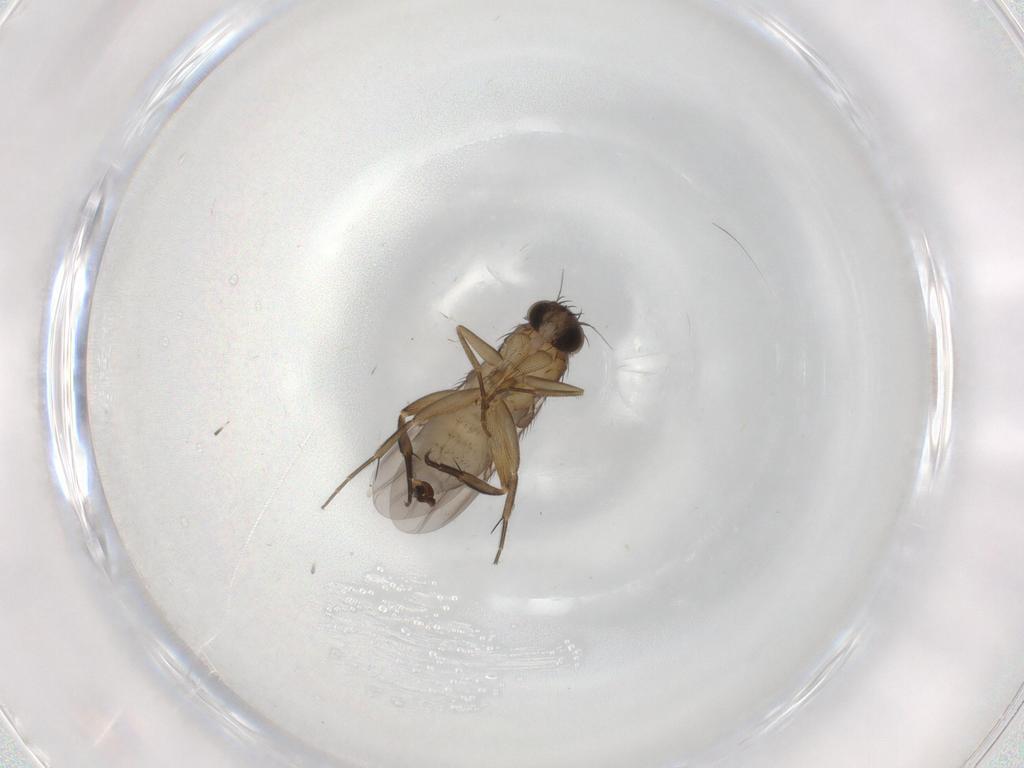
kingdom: Animalia
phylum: Arthropoda
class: Insecta
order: Diptera
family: Phoridae
